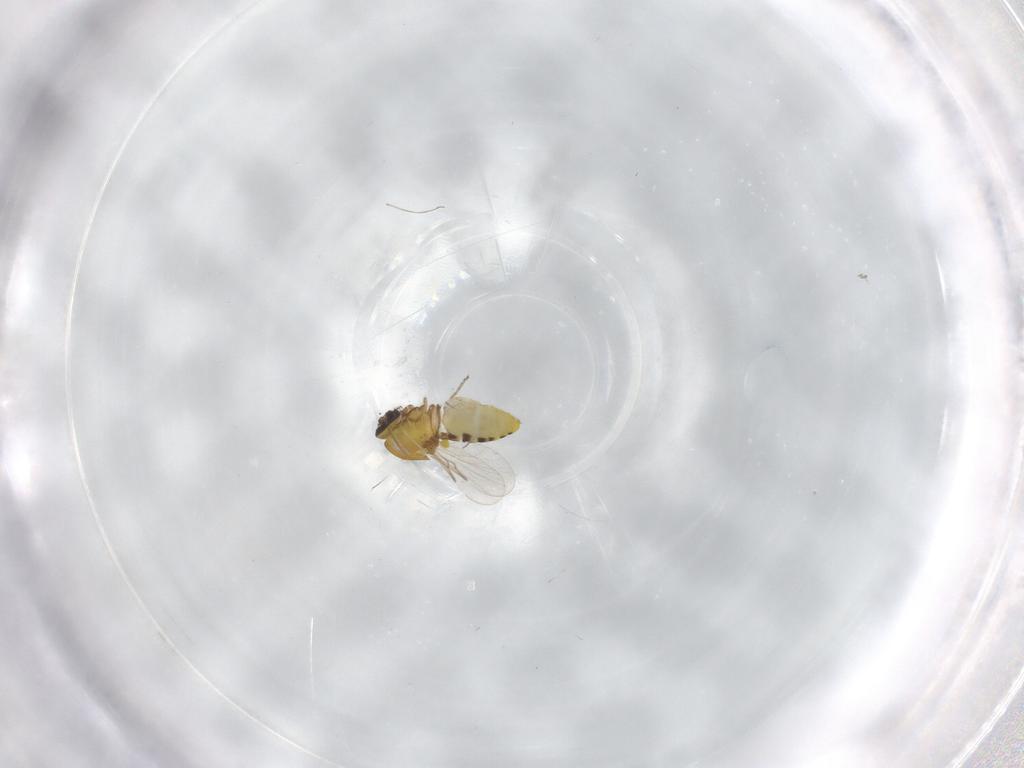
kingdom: Animalia
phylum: Arthropoda
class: Insecta
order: Diptera
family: Ceratopogonidae
